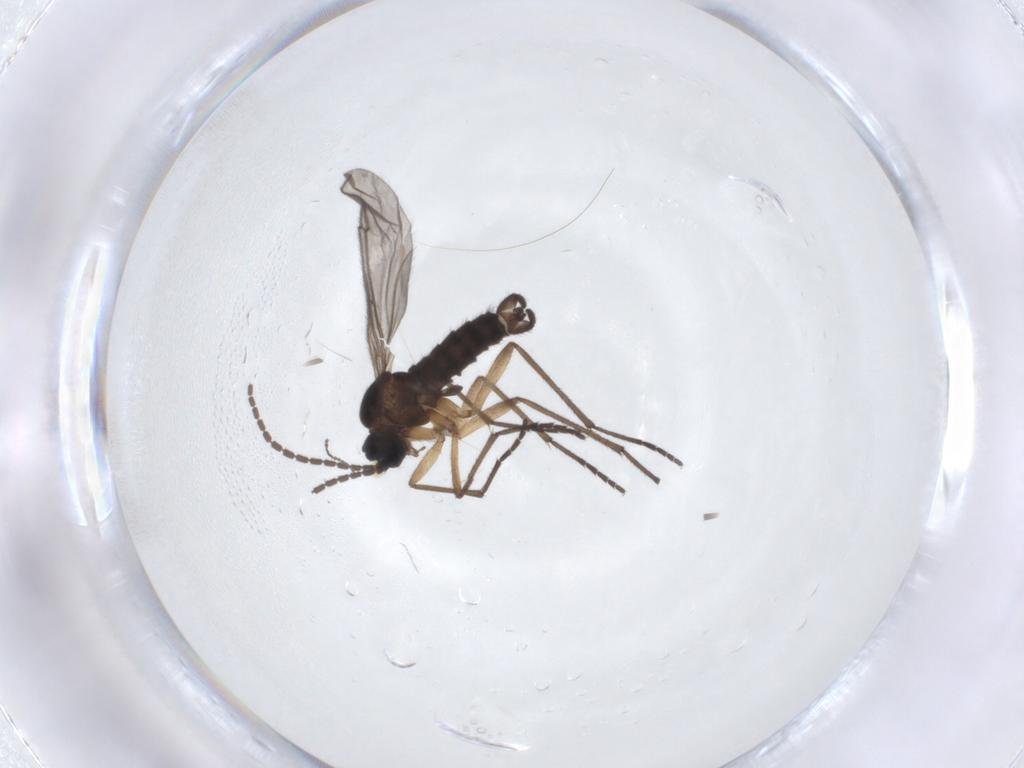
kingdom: Animalia
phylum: Arthropoda
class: Insecta
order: Diptera
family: Sciaridae
